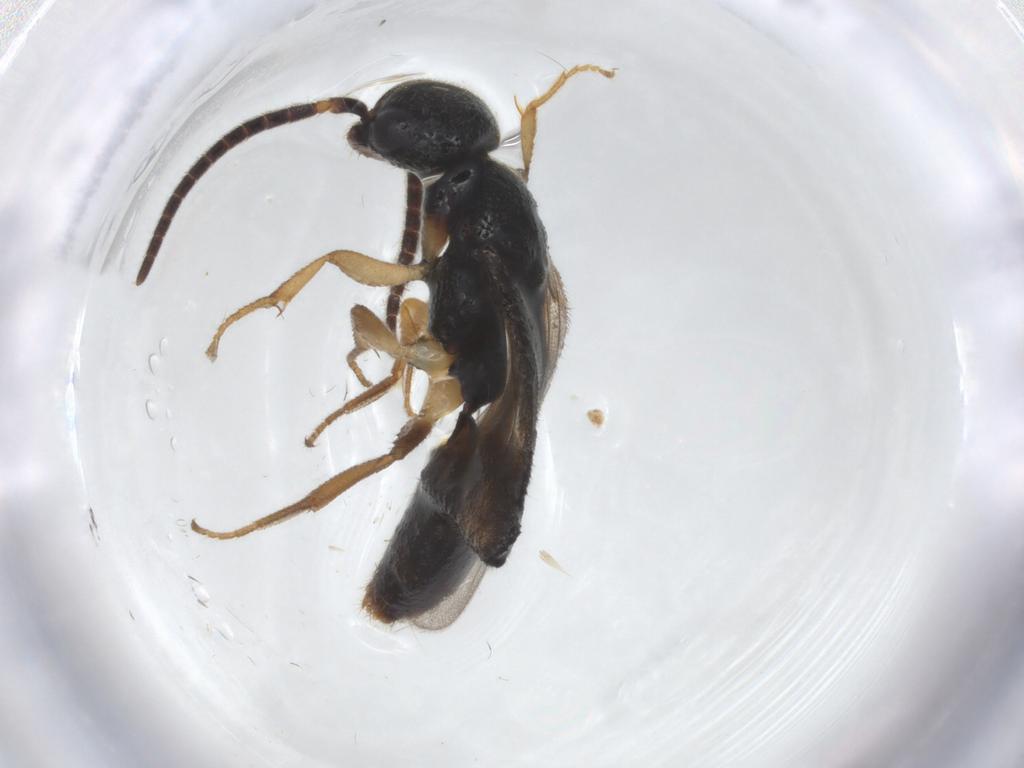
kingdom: Animalia
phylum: Arthropoda
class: Insecta
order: Hymenoptera
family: Bethylidae
